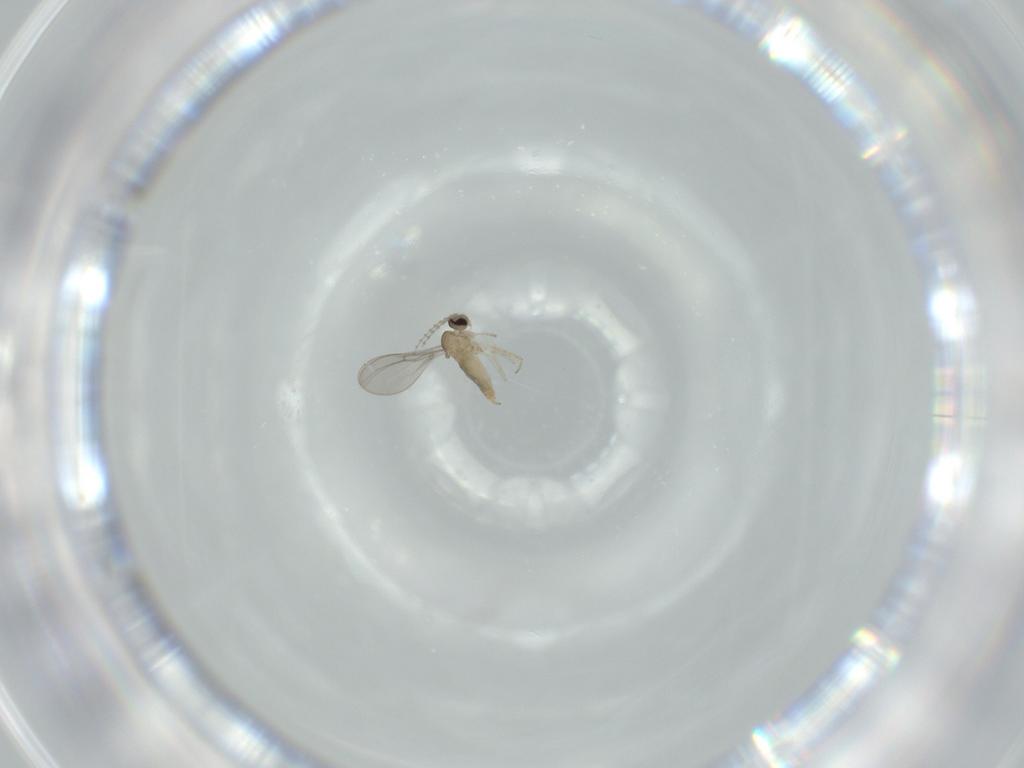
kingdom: Animalia
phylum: Arthropoda
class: Insecta
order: Diptera
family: Cecidomyiidae
